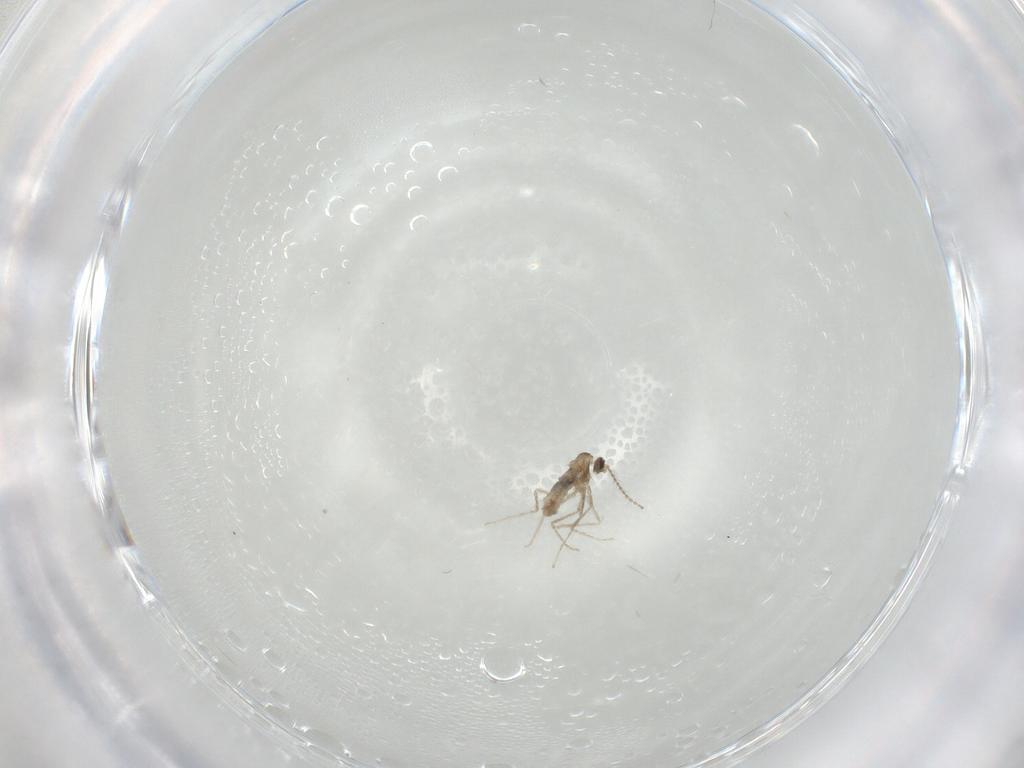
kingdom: Animalia
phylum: Arthropoda
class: Insecta
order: Diptera
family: Cecidomyiidae
